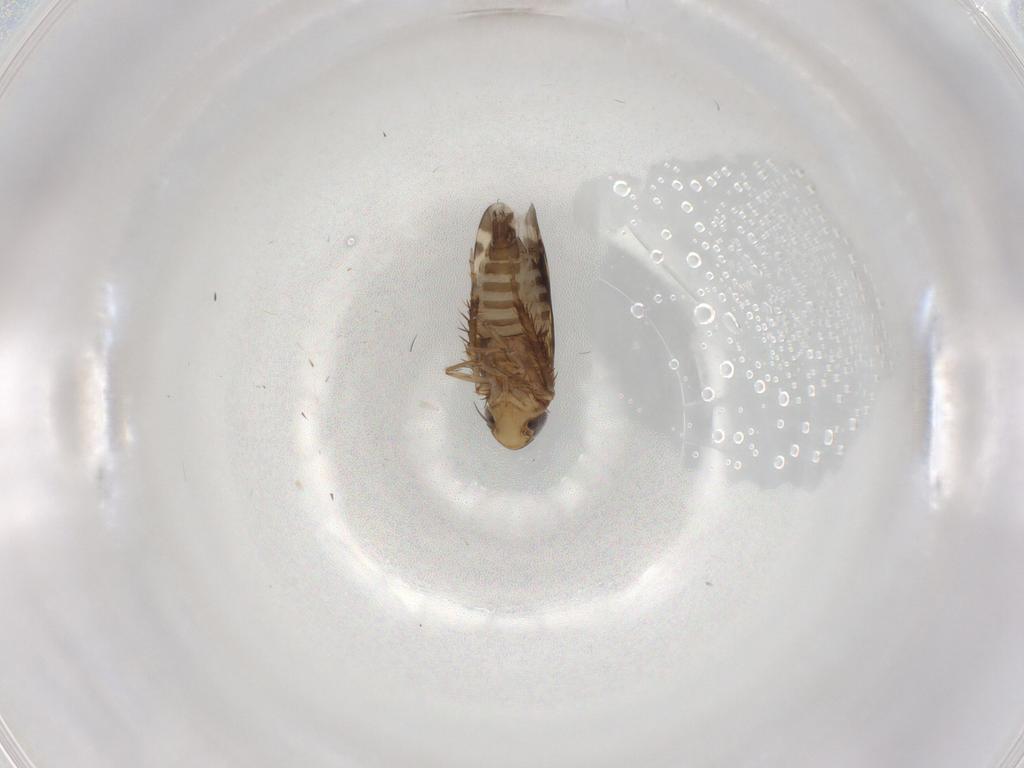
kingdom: Animalia
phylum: Arthropoda
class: Insecta
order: Hemiptera
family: Cicadellidae
